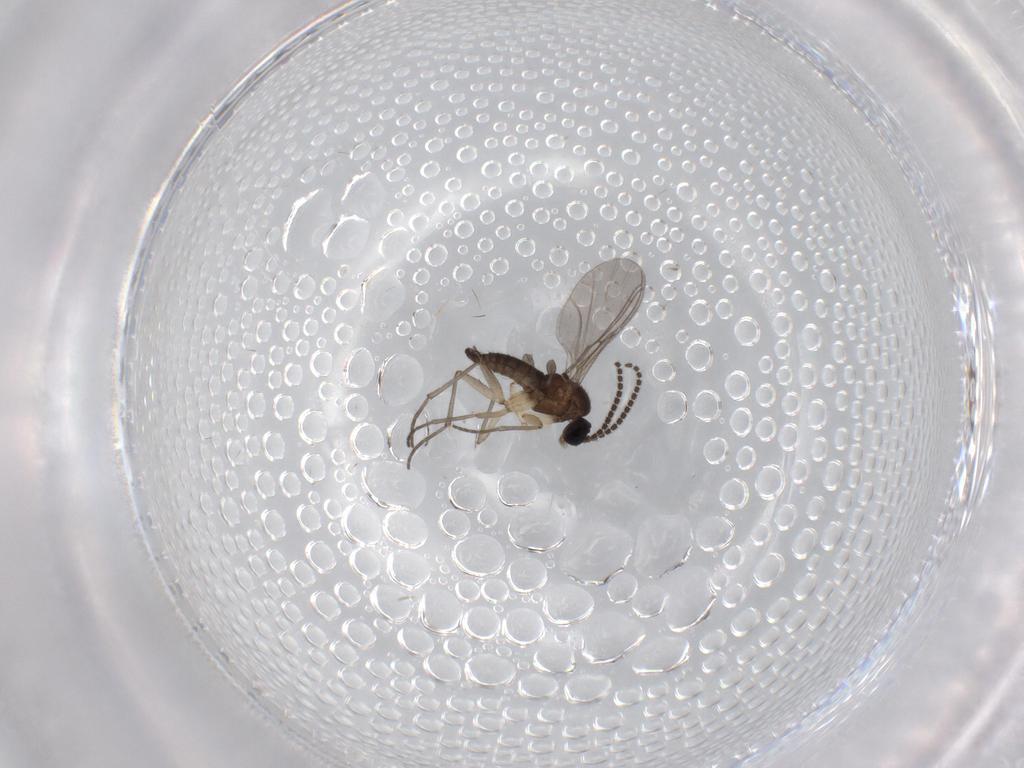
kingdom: Animalia
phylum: Arthropoda
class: Insecta
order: Diptera
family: Sciaridae
